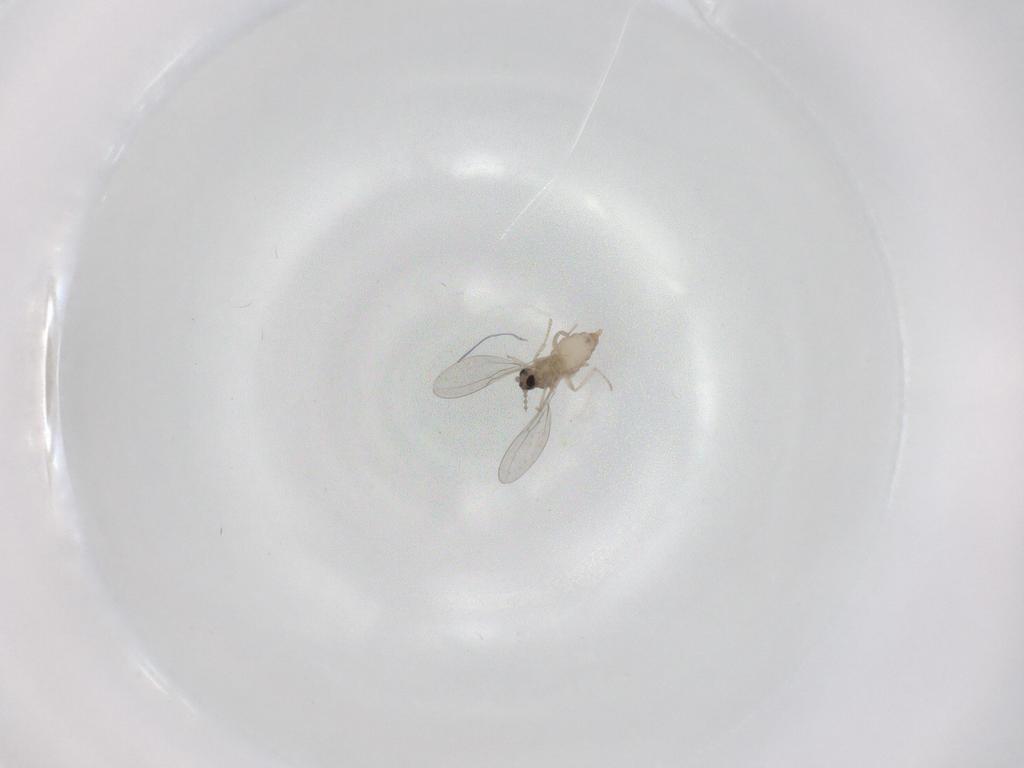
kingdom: Animalia
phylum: Arthropoda
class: Insecta
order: Diptera
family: Cecidomyiidae
